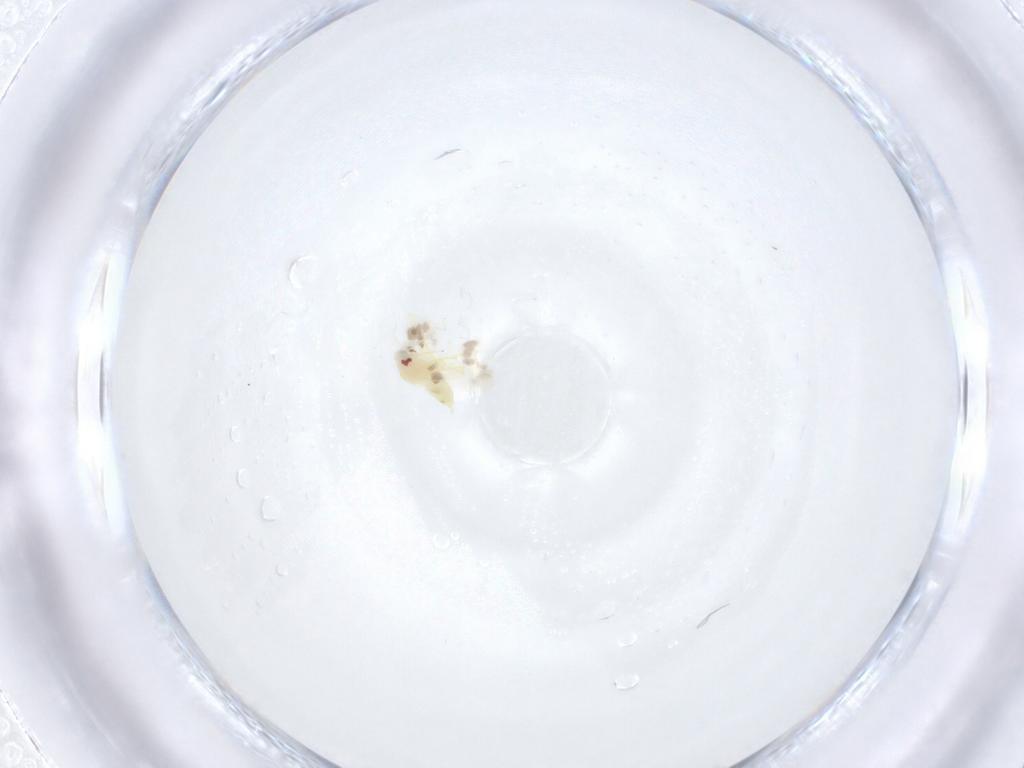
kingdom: Animalia
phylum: Arthropoda
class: Insecta
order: Hemiptera
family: Aleyrodidae
